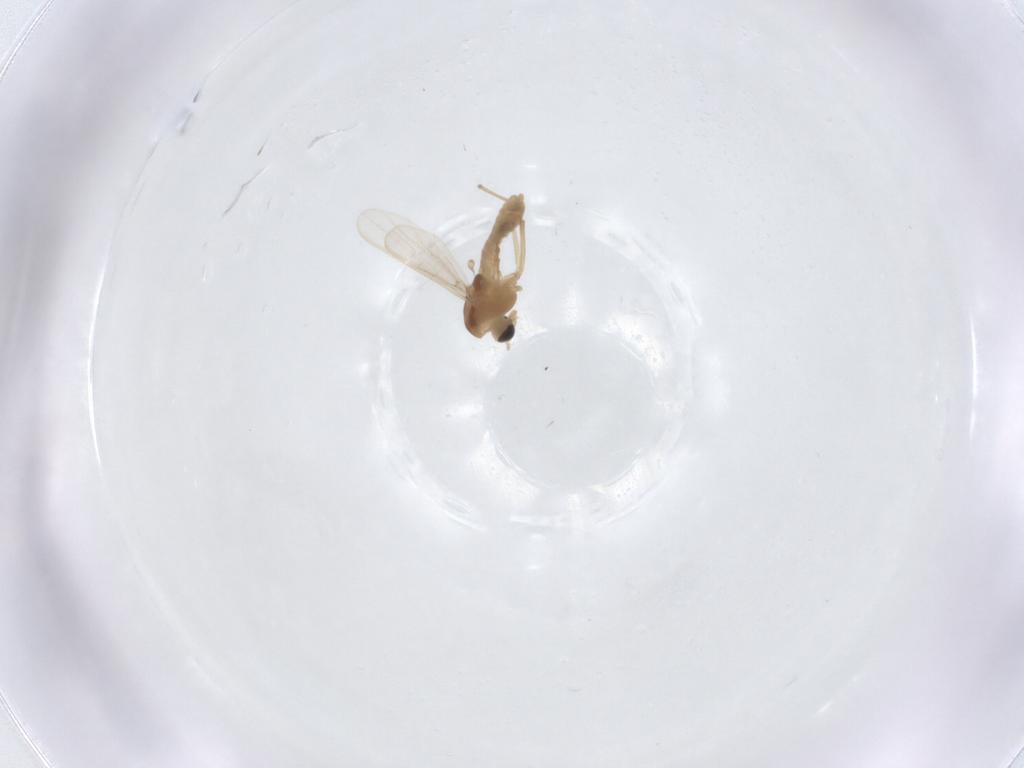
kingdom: Animalia
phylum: Arthropoda
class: Insecta
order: Diptera
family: Chironomidae
